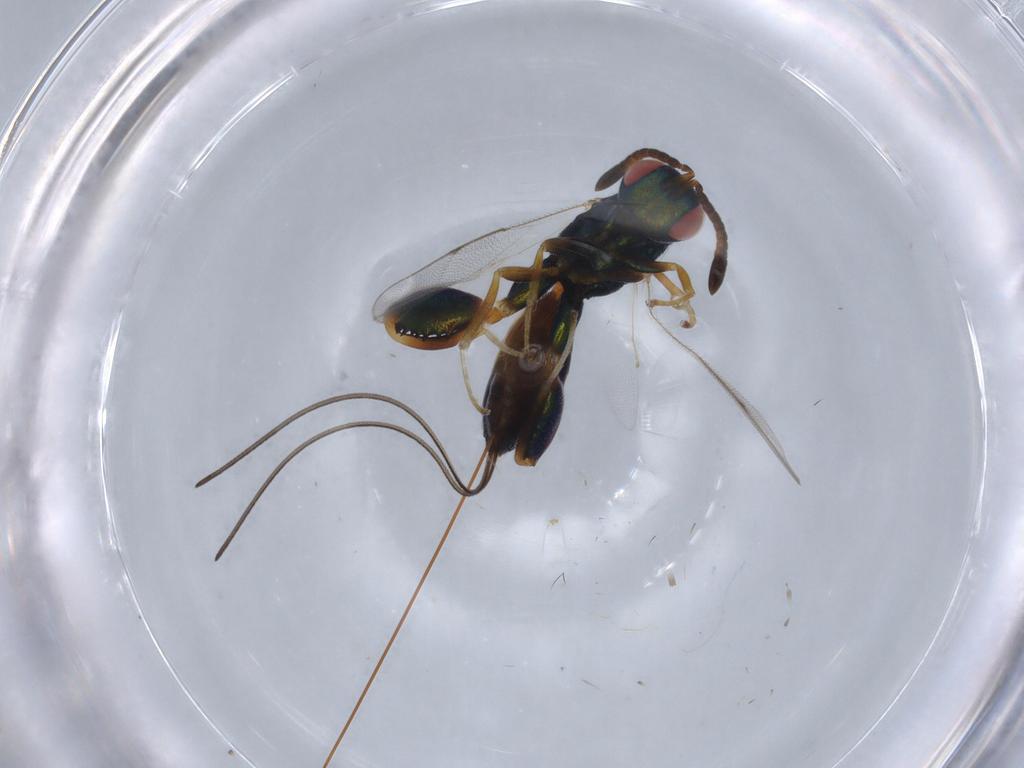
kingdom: Animalia
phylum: Arthropoda
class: Insecta
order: Hymenoptera
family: Torymidae
